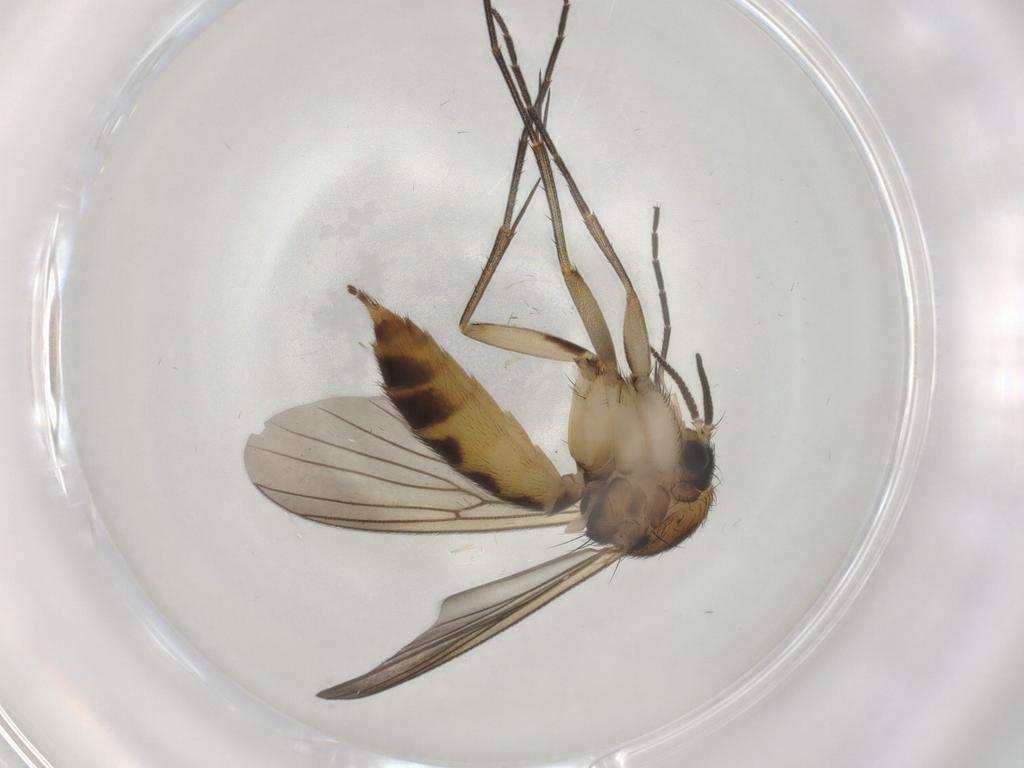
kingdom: Animalia
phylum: Arthropoda
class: Insecta
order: Diptera
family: Mycetophilidae
